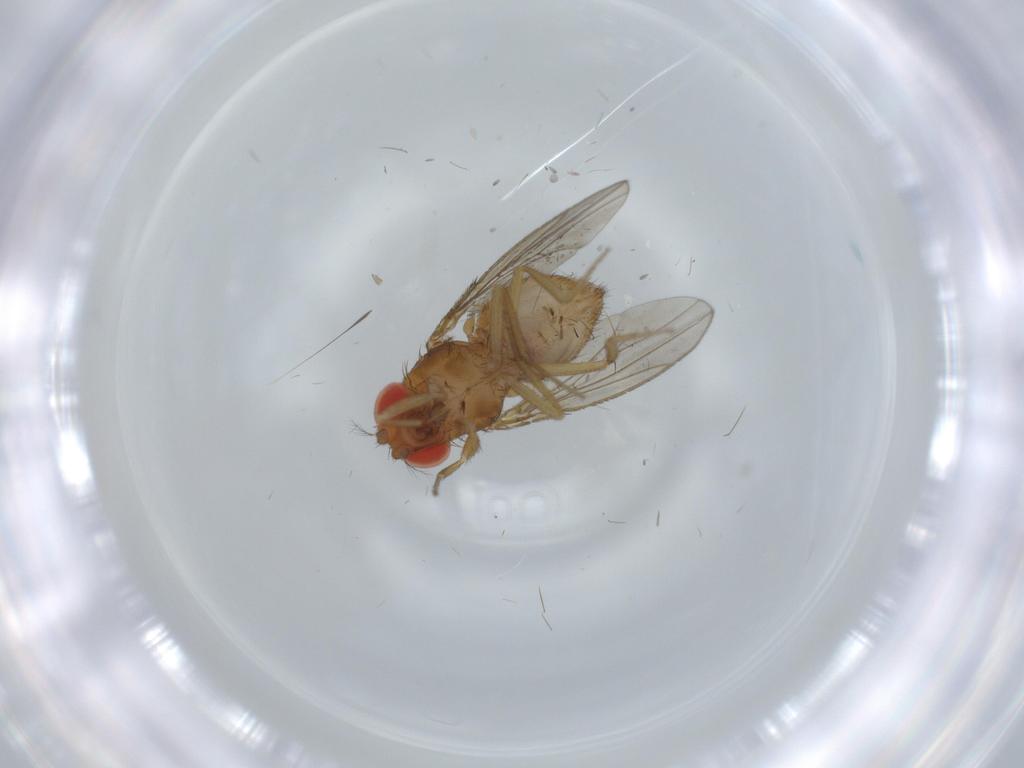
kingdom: Animalia
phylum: Arthropoda
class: Insecta
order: Diptera
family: Drosophilidae
